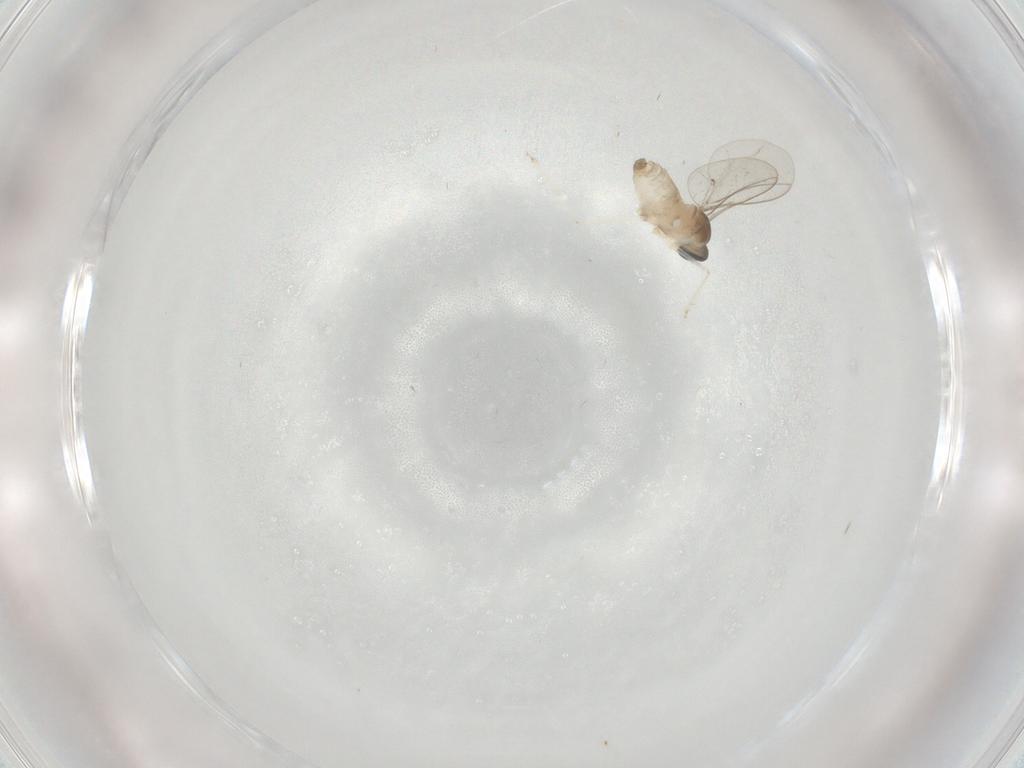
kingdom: Animalia
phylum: Arthropoda
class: Insecta
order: Diptera
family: Cecidomyiidae
